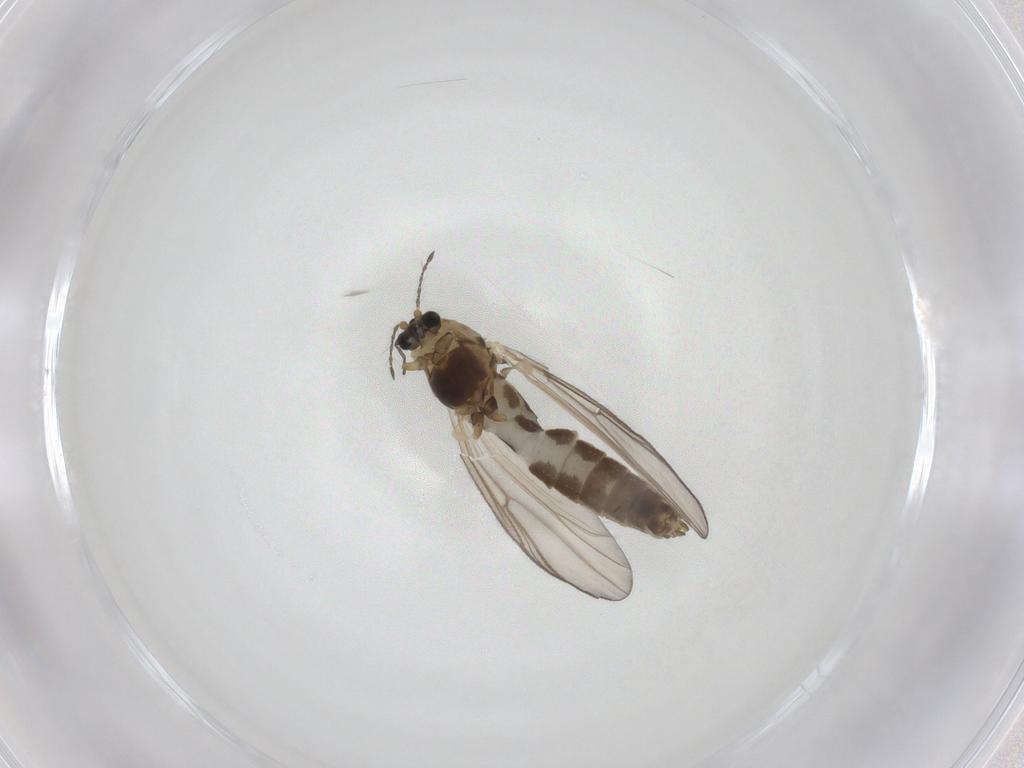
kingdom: Animalia
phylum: Arthropoda
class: Insecta
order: Diptera
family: Chironomidae
